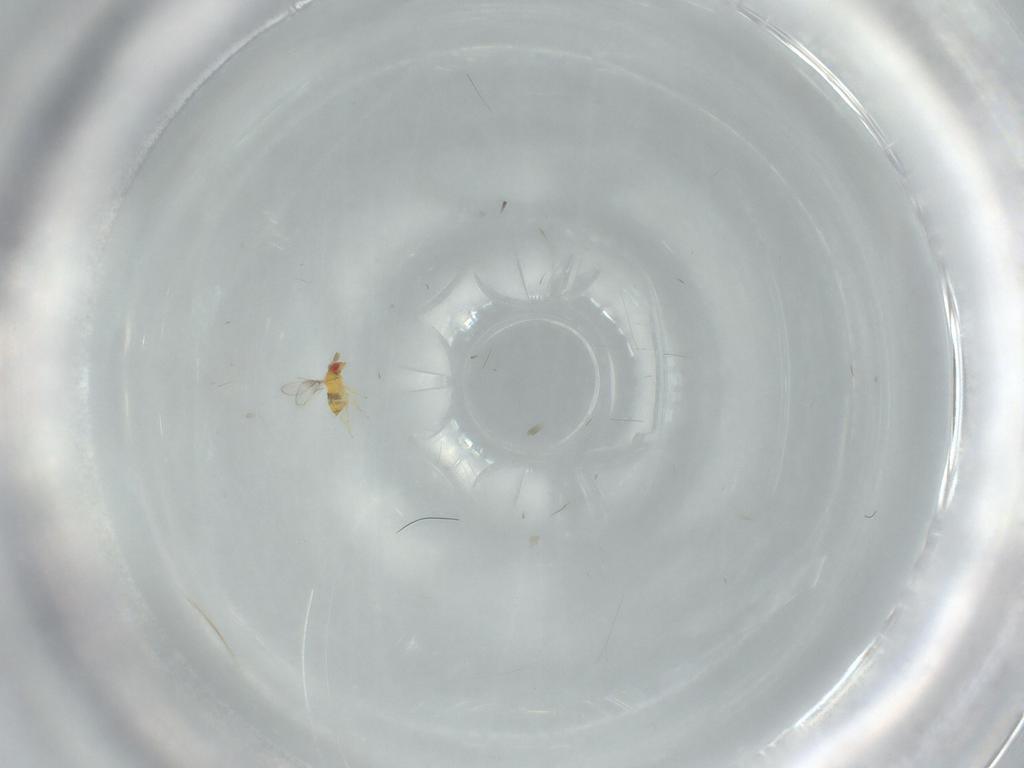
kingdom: Animalia
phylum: Arthropoda
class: Insecta
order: Hymenoptera
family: Trichogrammatidae
